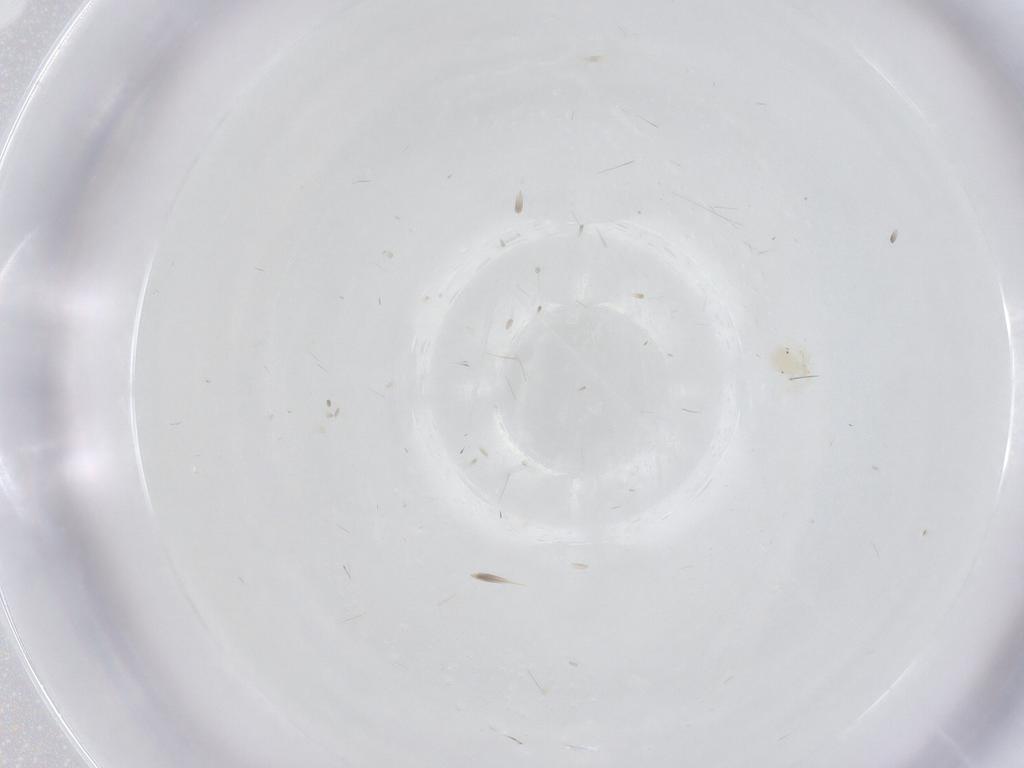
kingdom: Animalia
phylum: Arthropoda
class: Arachnida
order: Trombidiformes
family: Anystidae
